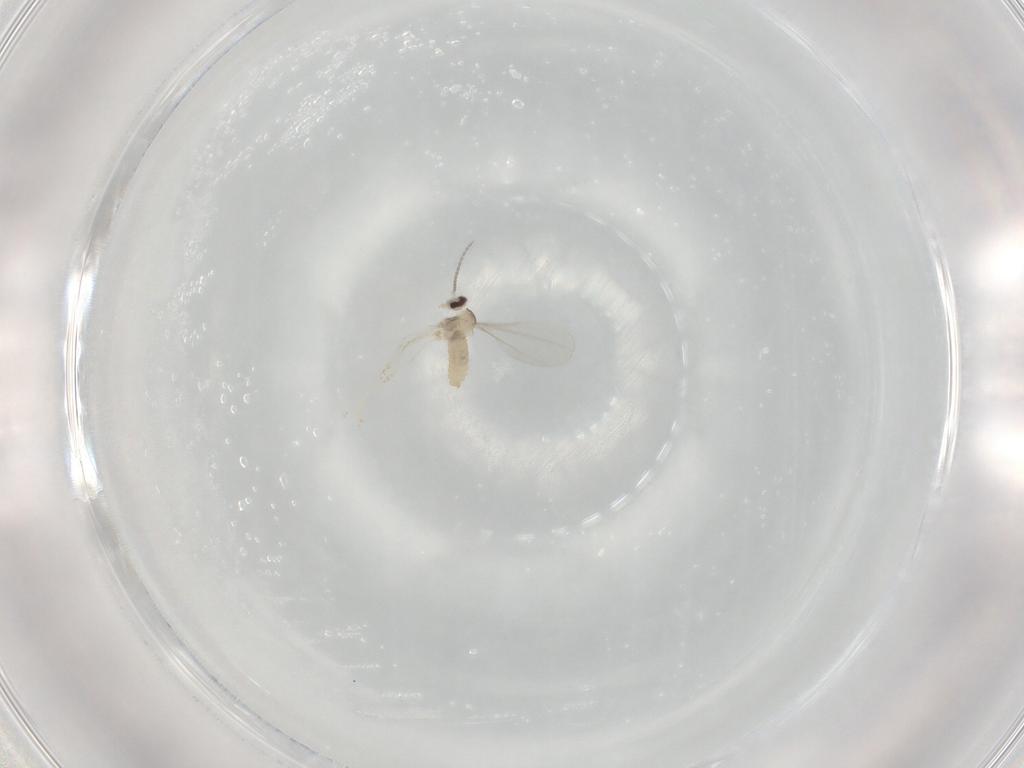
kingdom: Animalia
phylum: Arthropoda
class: Insecta
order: Diptera
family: Cecidomyiidae
